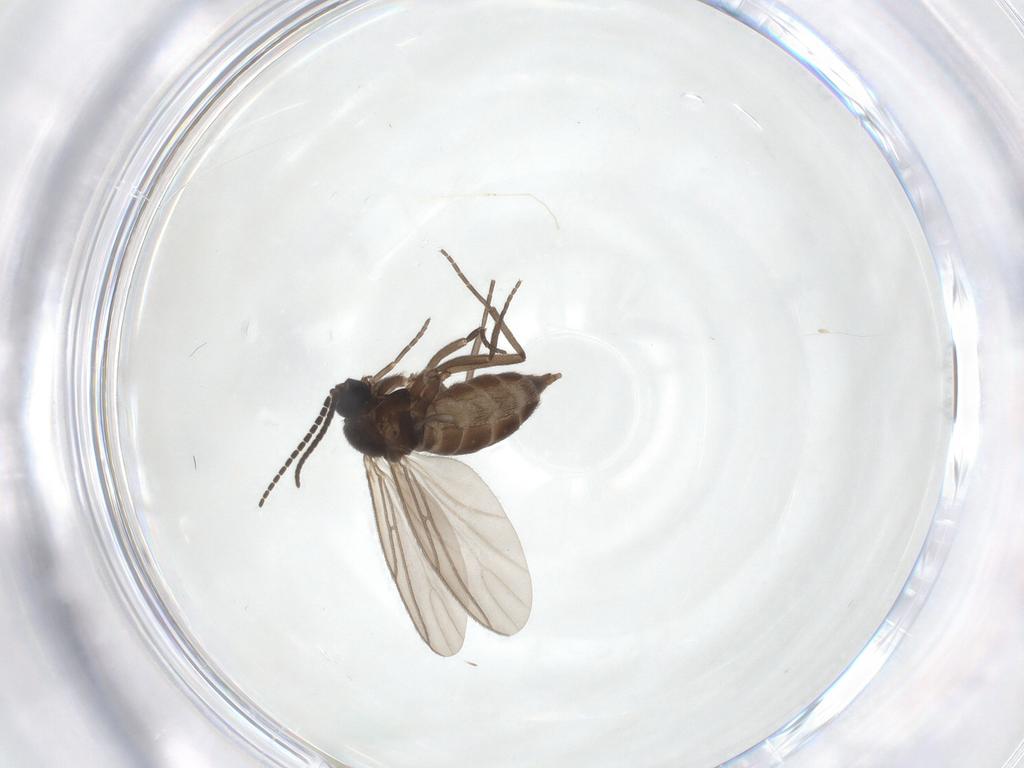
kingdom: Animalia
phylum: Arthropoda
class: Insecta
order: Diptera
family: Sciaridae
